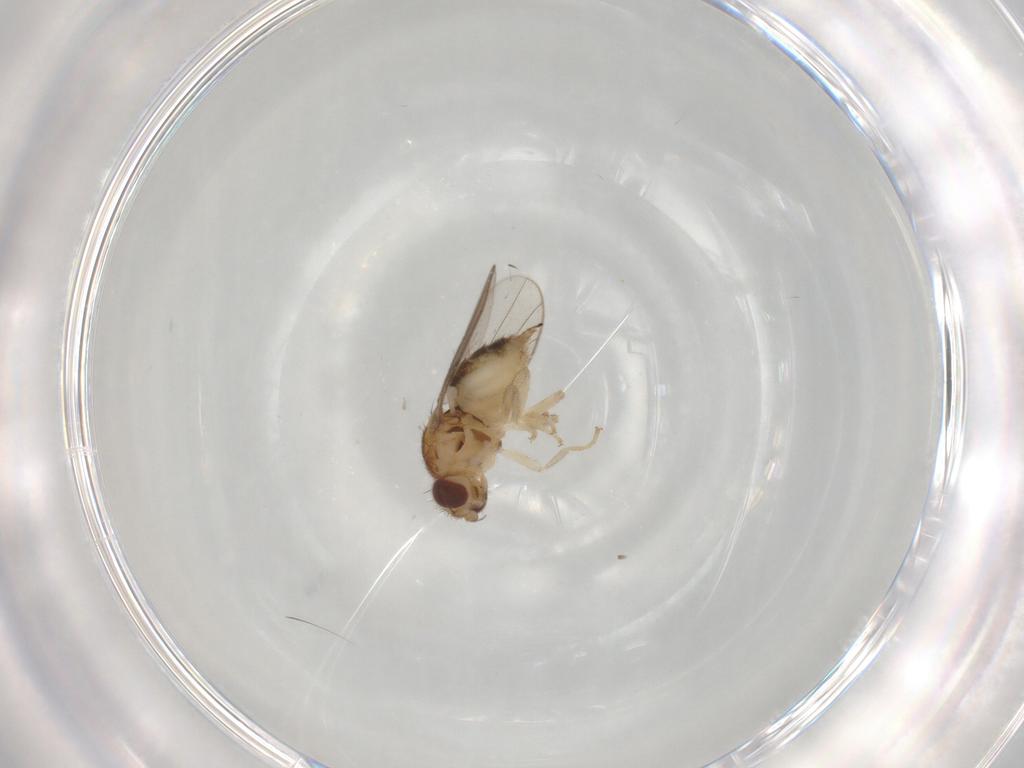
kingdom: Animalia
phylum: Arthropoda
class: Insecta
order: Diptera
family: Chloropidae
